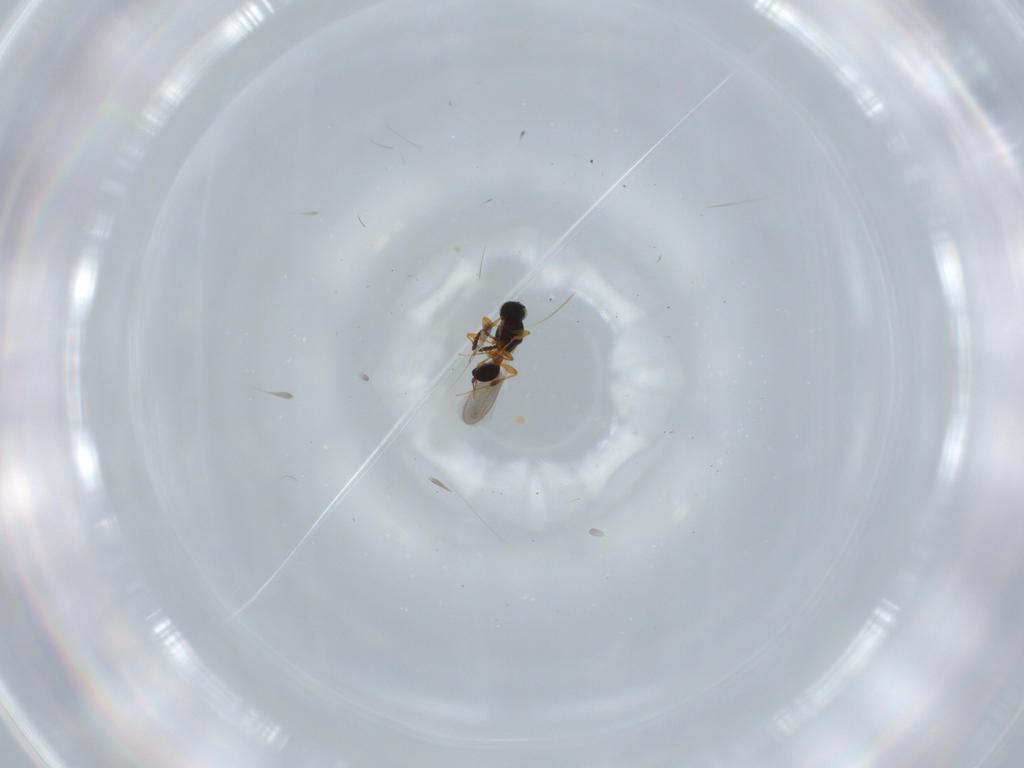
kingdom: Animalia
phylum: Arthropoda
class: Insecta
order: Hymenoptera
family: Platygastridae
